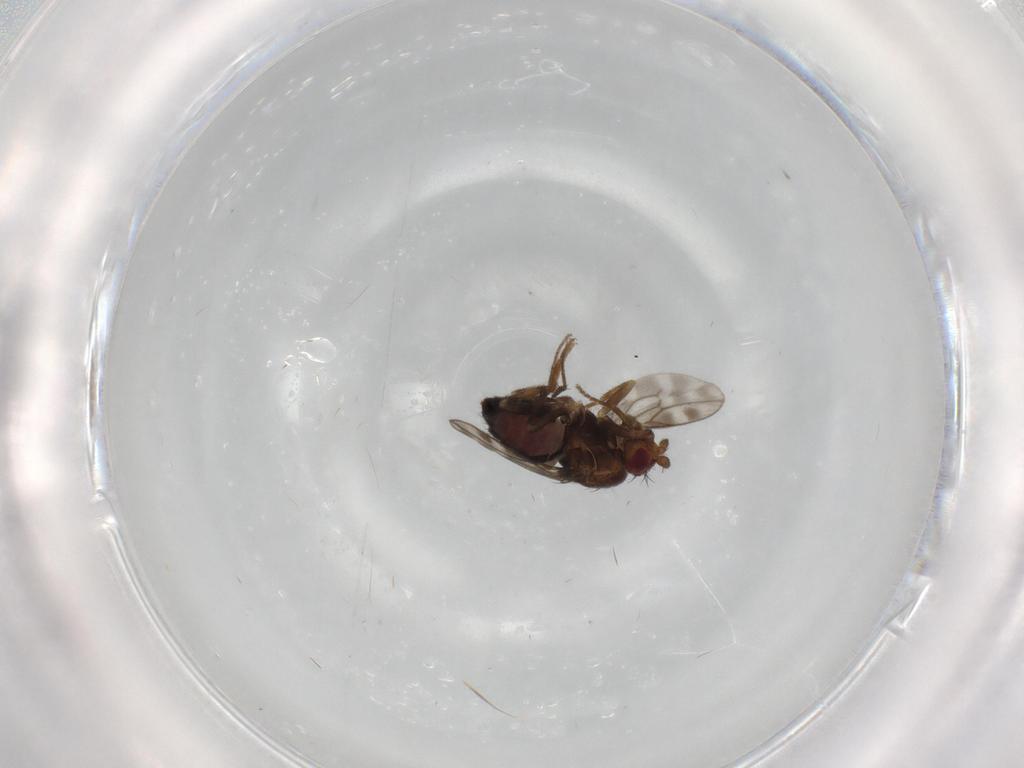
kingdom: Animalia
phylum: Arthropoda
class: Insecta
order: Diptera
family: Sphaeroceridae
